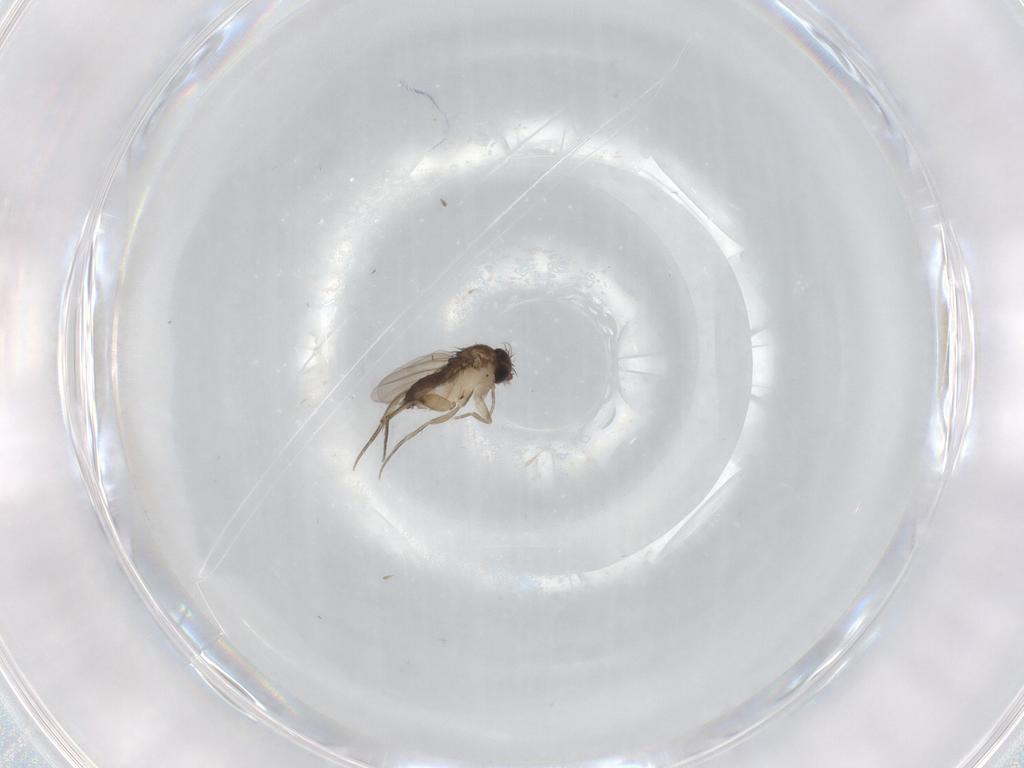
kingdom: Animalia
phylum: Arthropoda
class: Insecta
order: Diptera
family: Phoridae
